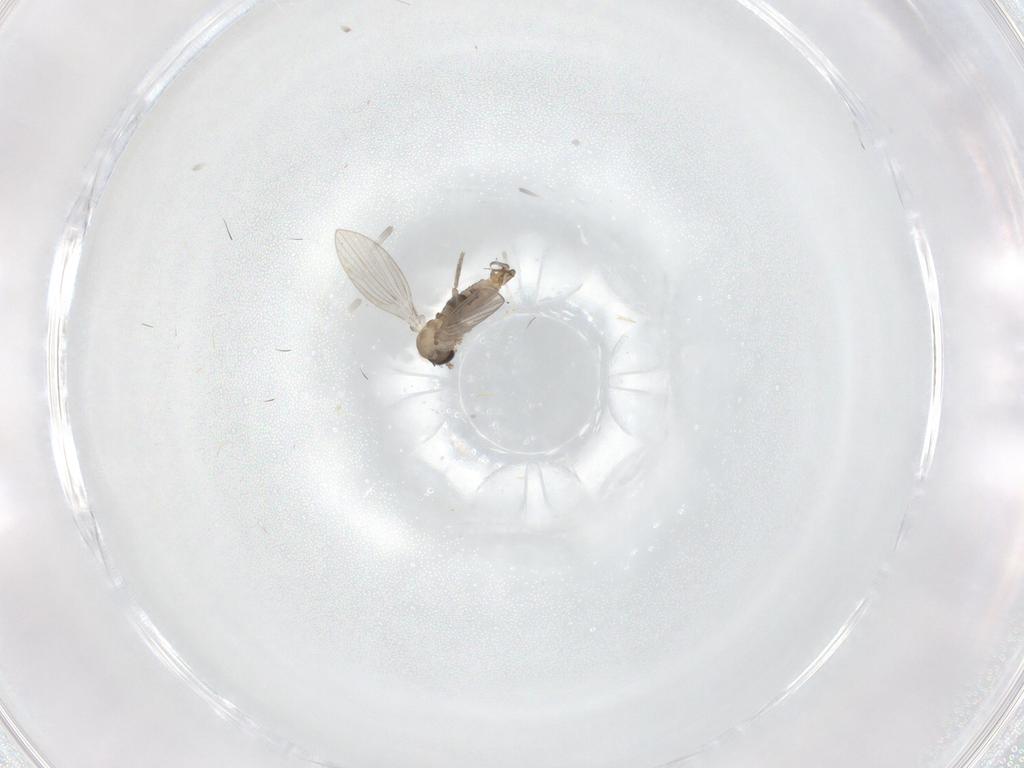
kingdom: Animalia
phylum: Arthropoda
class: Insecta
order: Diptera
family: Psychodidae
